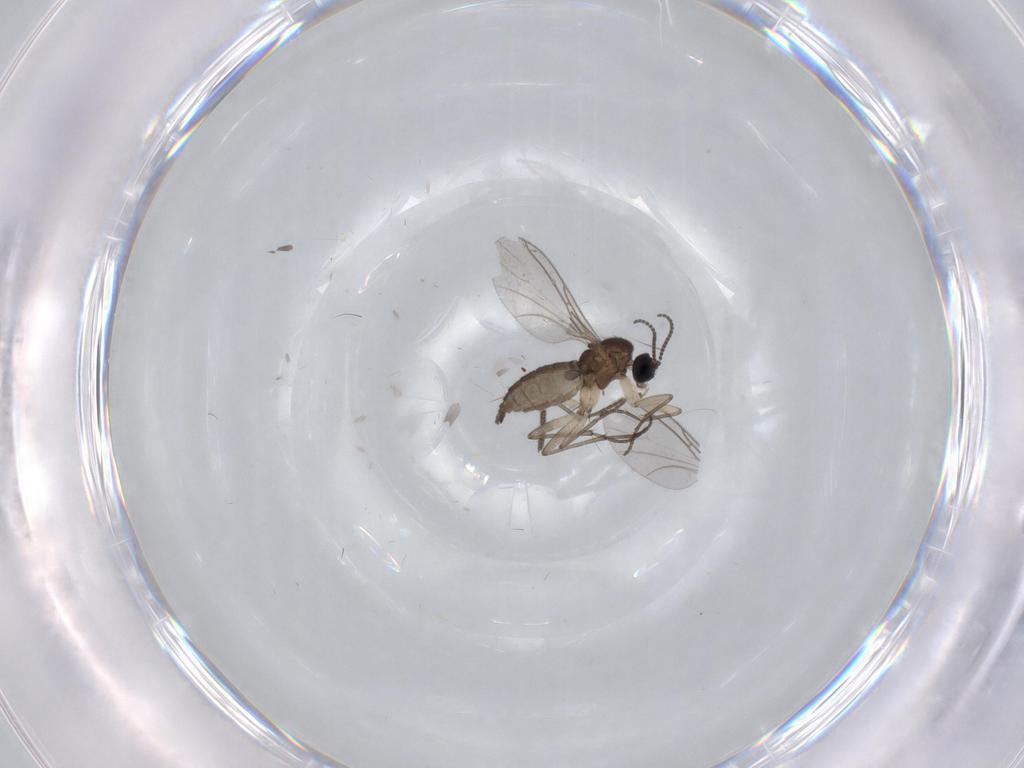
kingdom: Animalia
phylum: Arthropoda
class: Insecta
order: Diptera
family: Sciaridae
